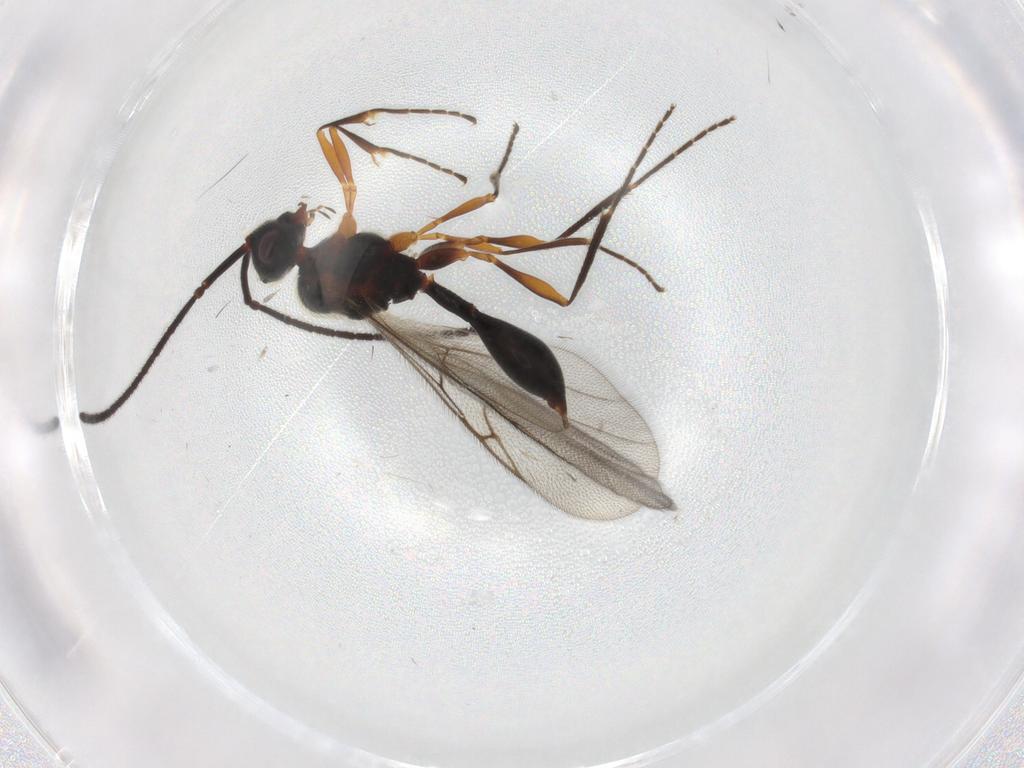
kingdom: Animalia
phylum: Arthropoda
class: Insecta
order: Hymenoptera
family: Diapriidae
